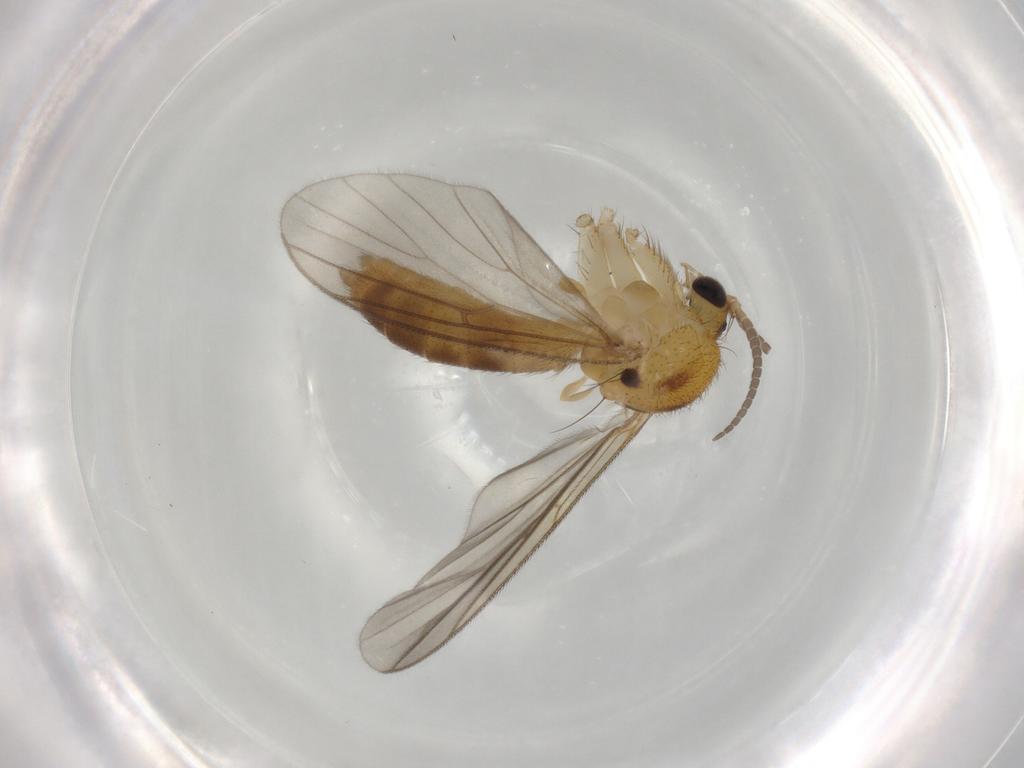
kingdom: Animalia
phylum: Arthropoda
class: Insecta
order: Diptera
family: Mycetophilidae
